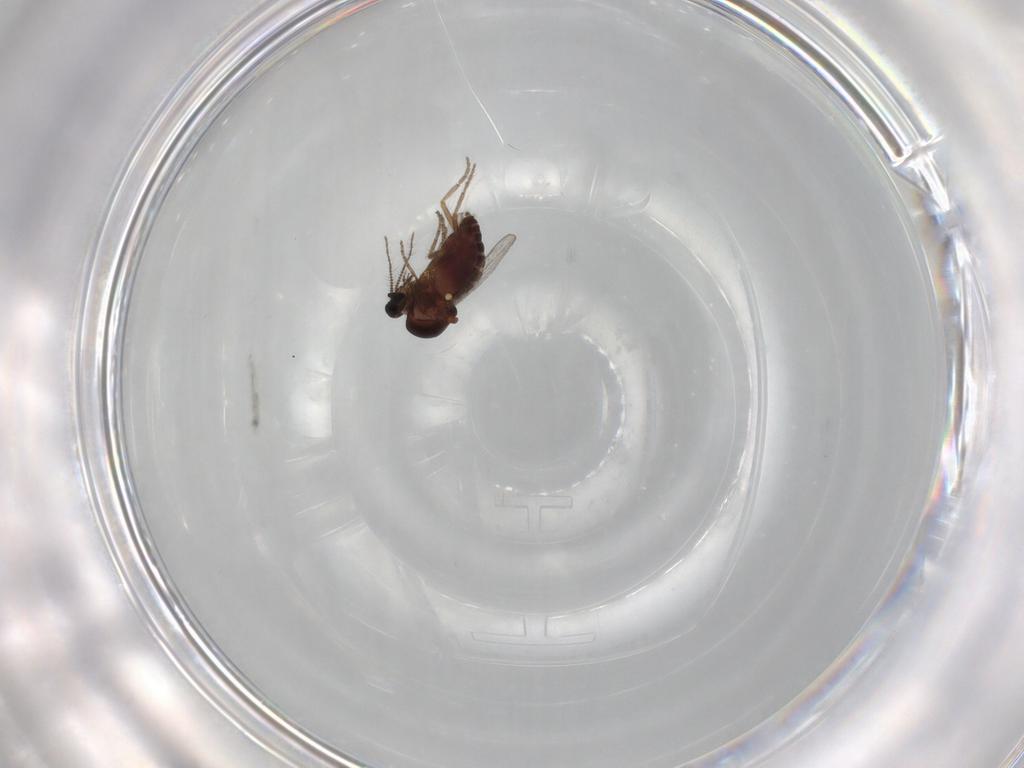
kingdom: Animalia
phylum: Arthropoda
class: Insecta
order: Diptera
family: Ceratopogonidae
